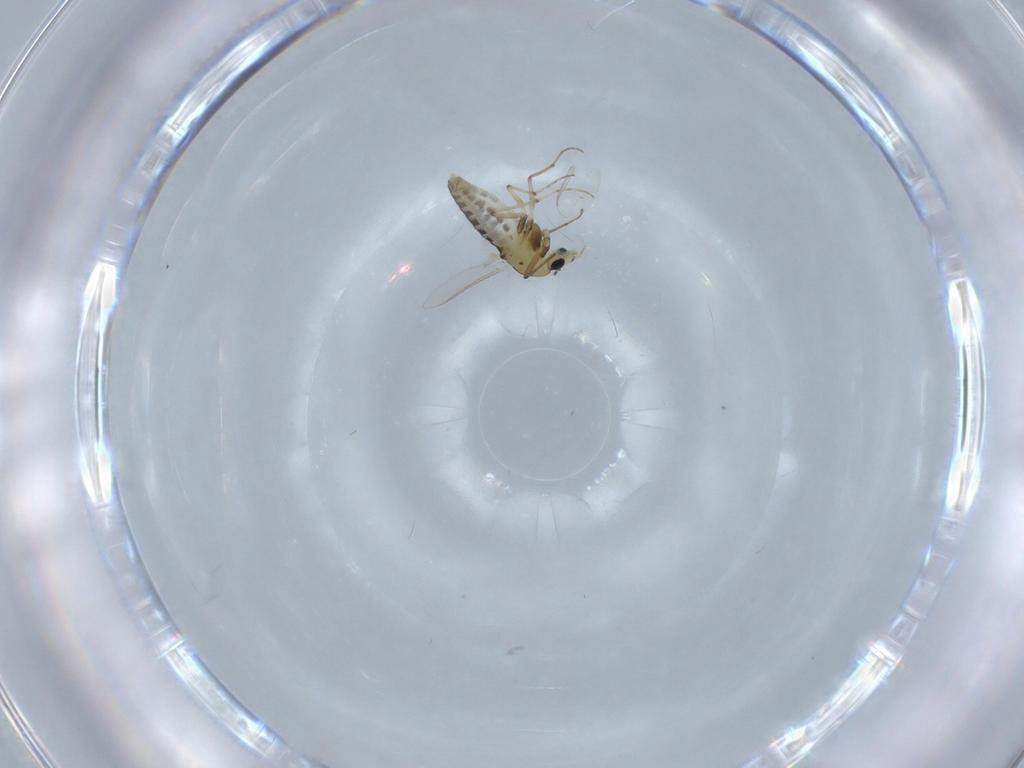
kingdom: Animalia
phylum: Arthropoda
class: Insecta
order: Diptera
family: Chironomidae
